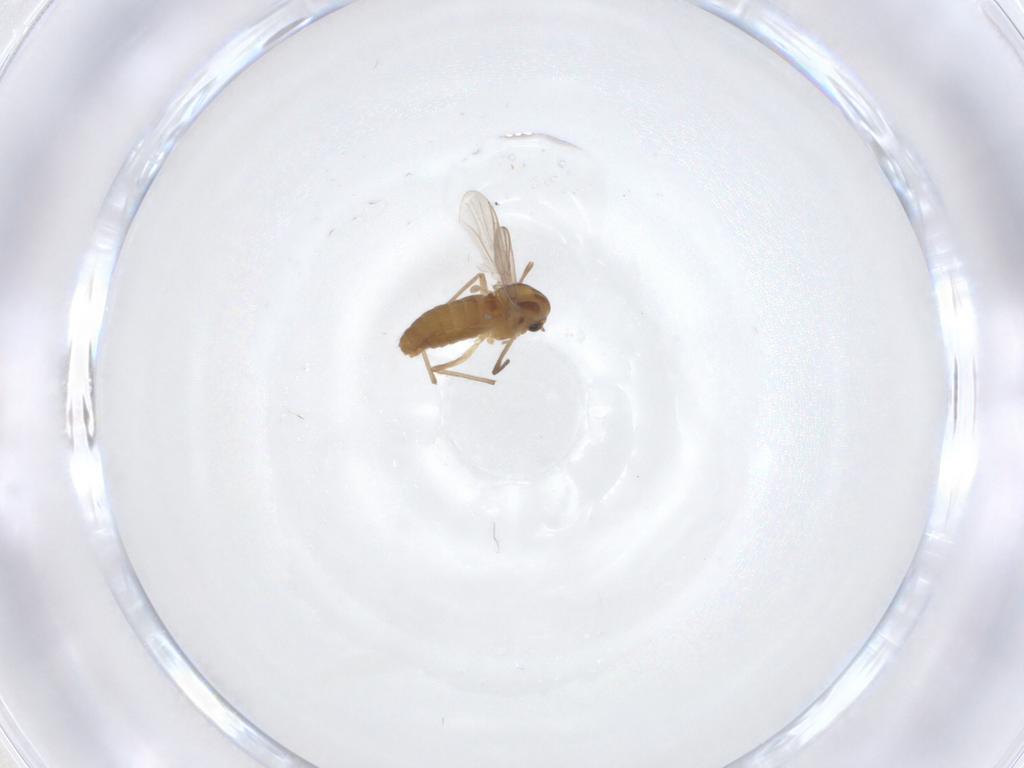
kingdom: Animalia
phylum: Arthropoda
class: Insecta
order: Diptera
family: Chironomidae
